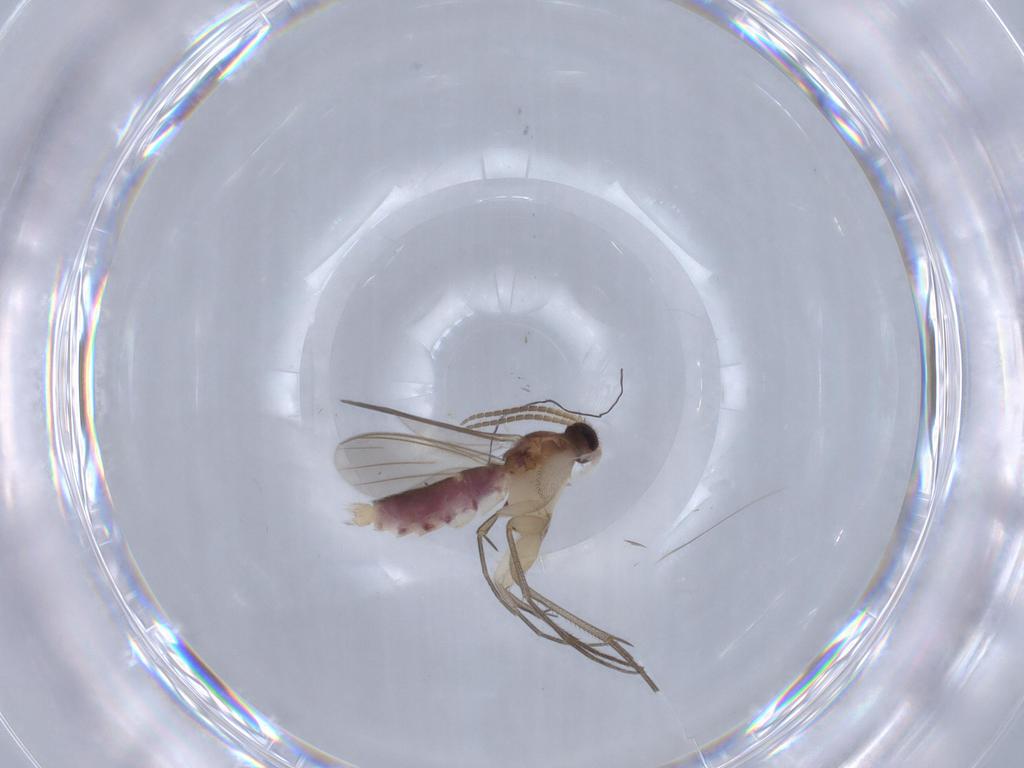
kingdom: Animalia
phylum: Arthropoda
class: Insecta
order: Diptera
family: Mycetophilidae
